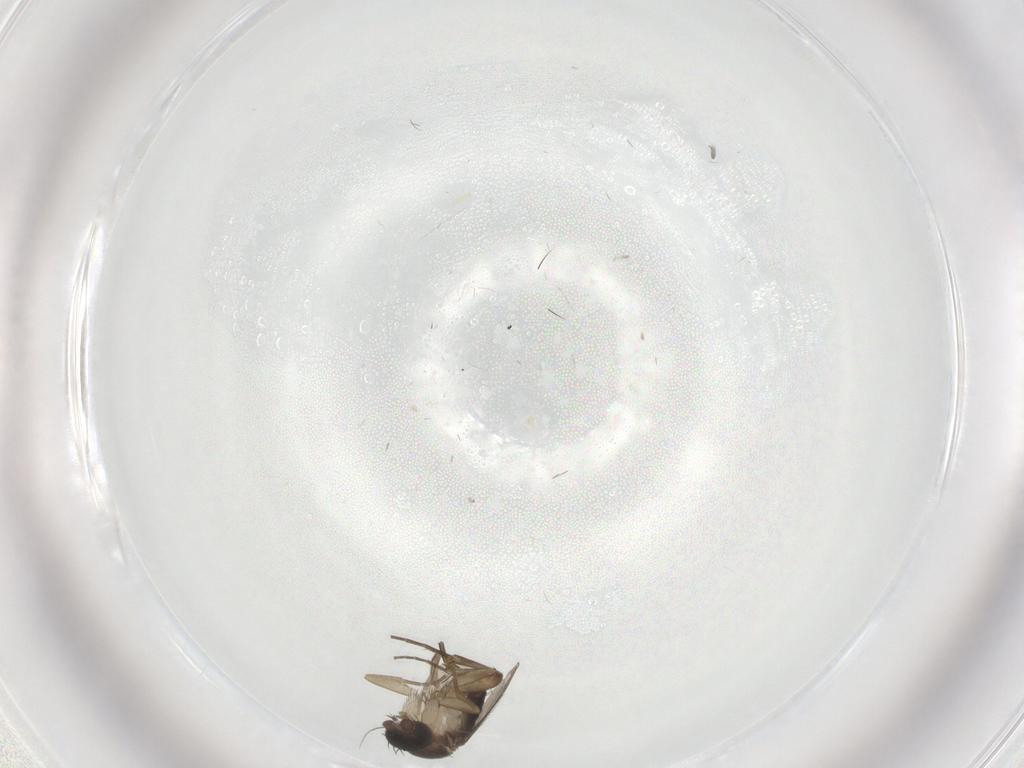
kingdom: Animalia
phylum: Arthropoda
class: Insecta
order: Diptera
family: Phoridae
